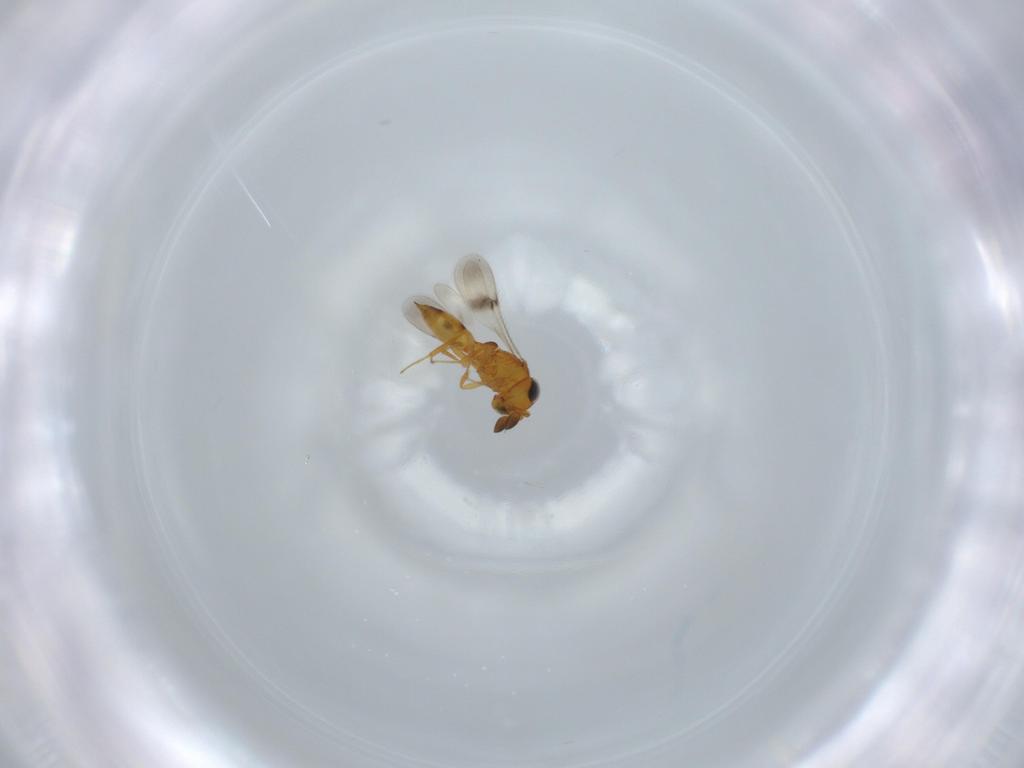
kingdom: Animalia
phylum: Arthropoda
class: Insecta
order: Hymenoptera
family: Scelionidae
